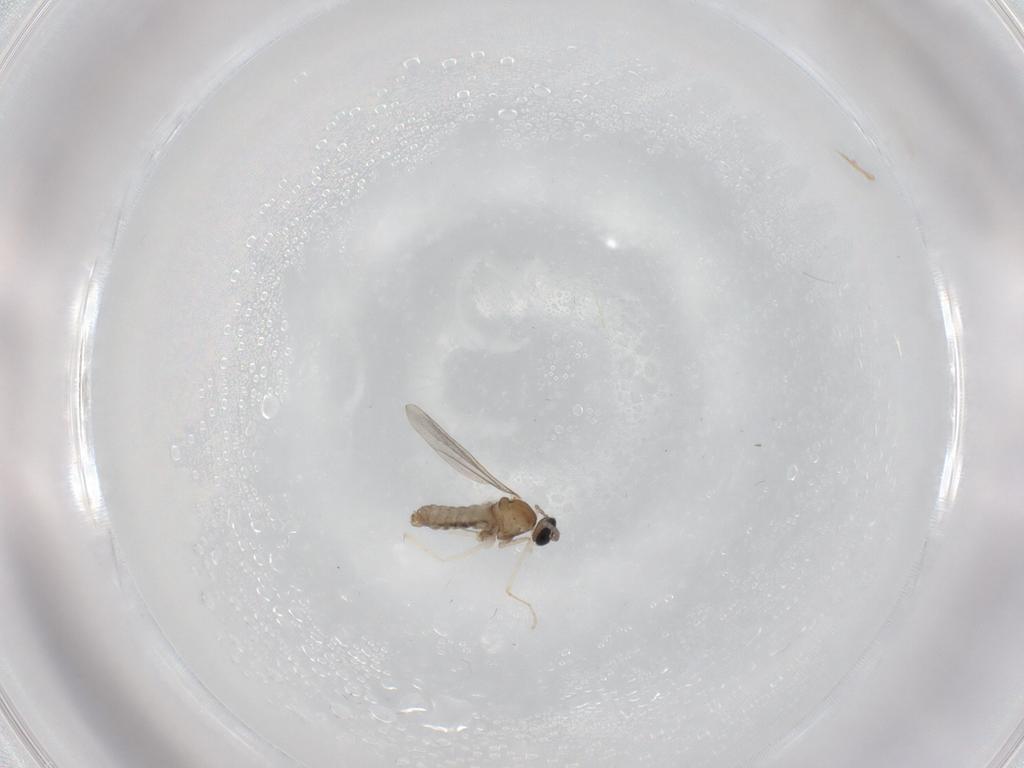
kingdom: Animalia
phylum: Arthropoda
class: Insecta
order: Diptera
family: Cecidomyiidae
